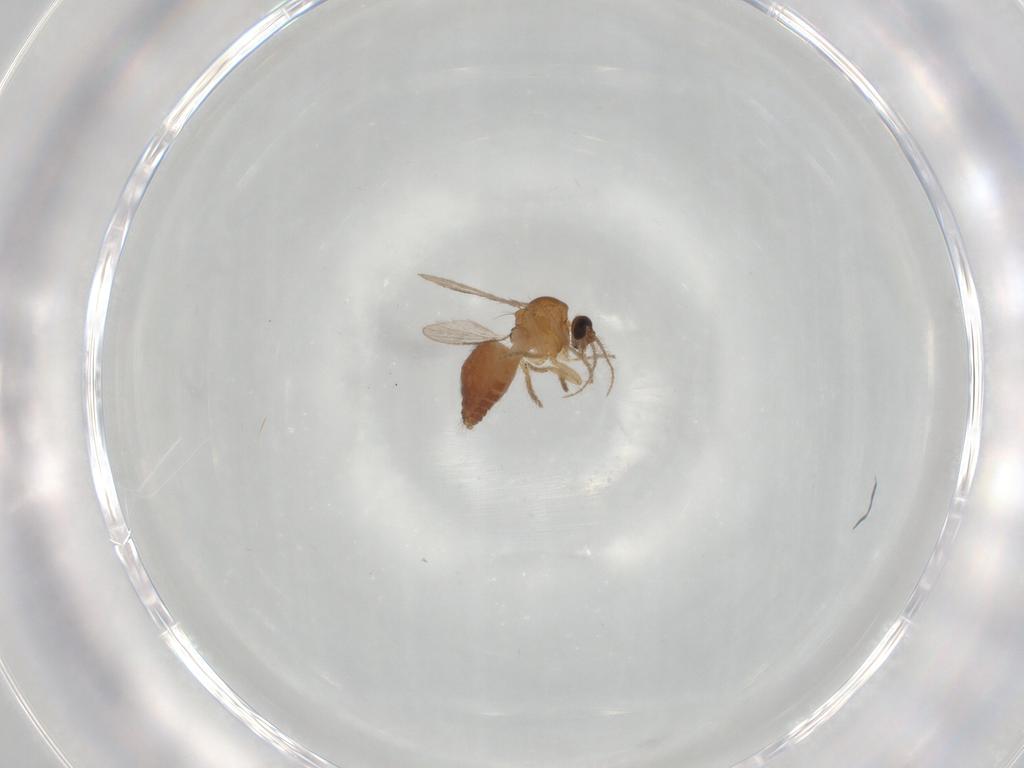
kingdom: Animalia
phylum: Arthropoda
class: Insecta
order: Diptera
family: Ceratopogonidae
